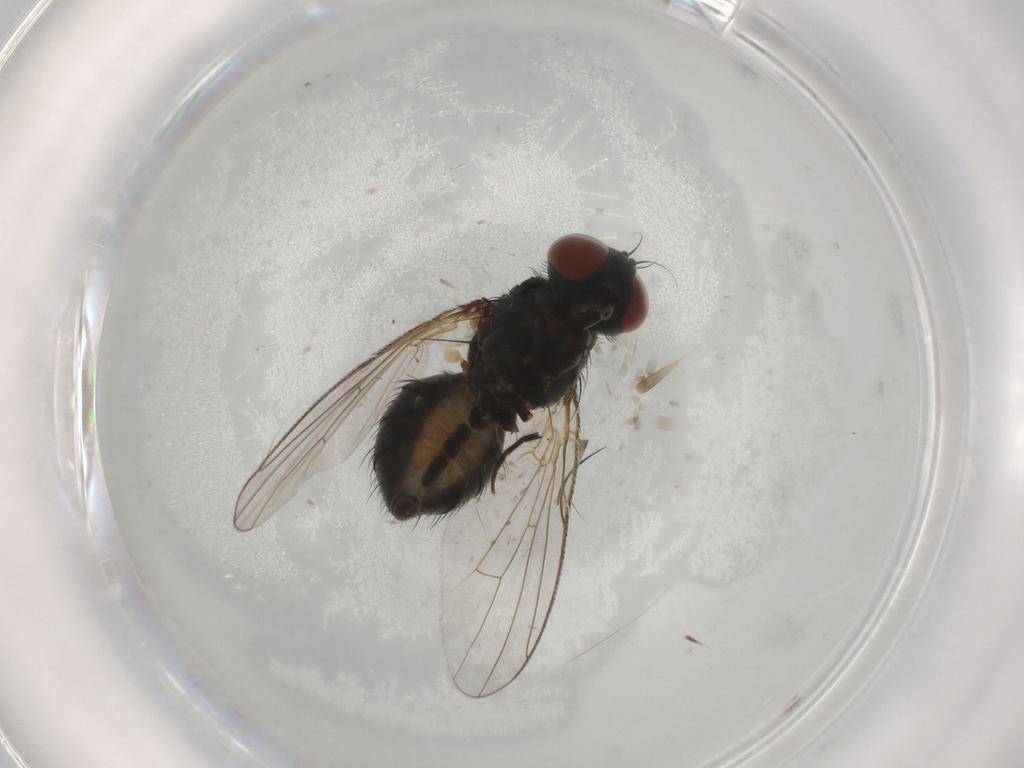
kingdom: Animalia
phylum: Arthropoda
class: Insecta
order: Diptera
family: Muscidae
